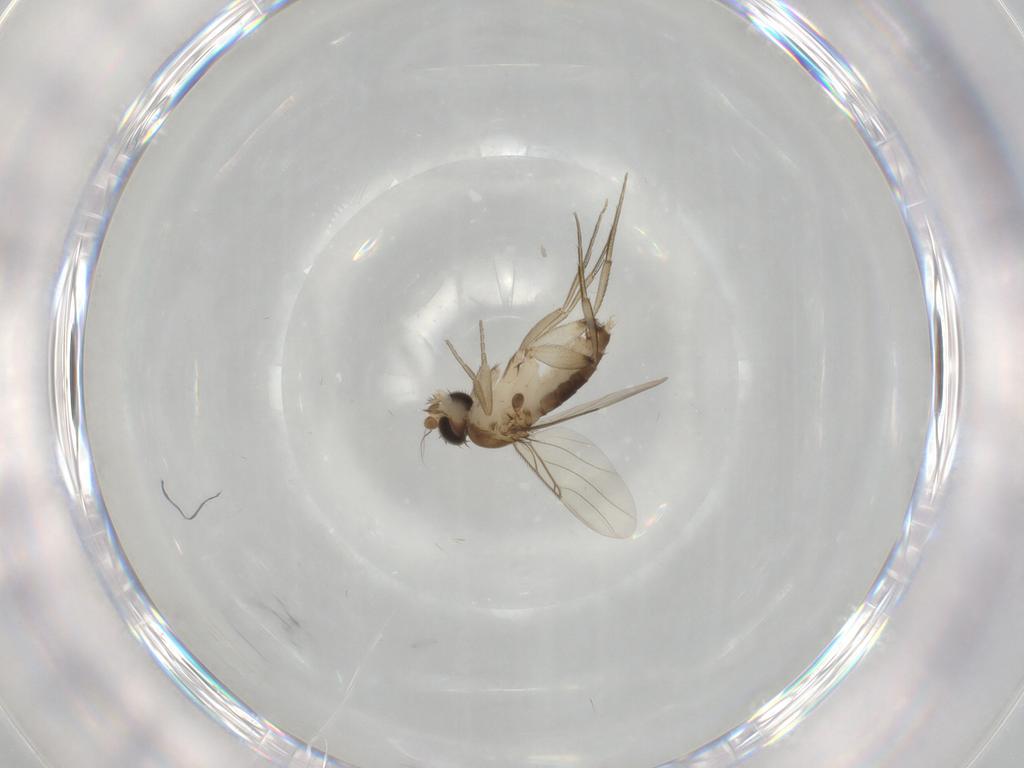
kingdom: Animalia
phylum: Arthropoda
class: Insecta
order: Diptera
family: Phoridae
